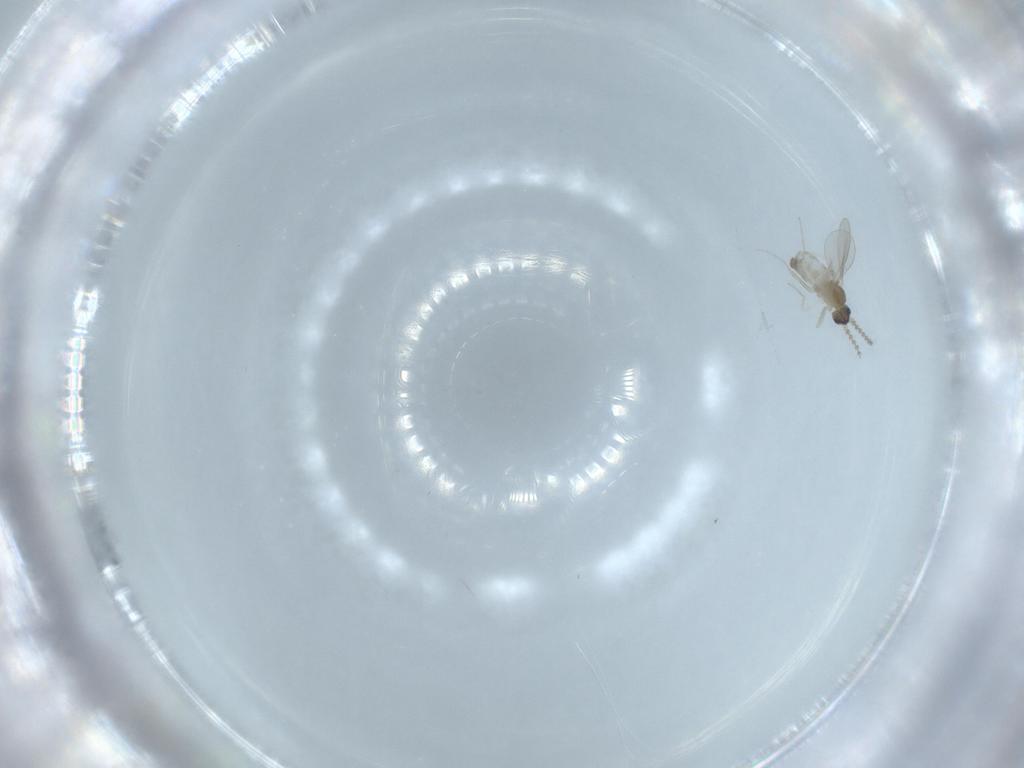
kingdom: Animalia
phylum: Arthropoda
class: Insecta
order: Diptera
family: Cecidomyiidae
